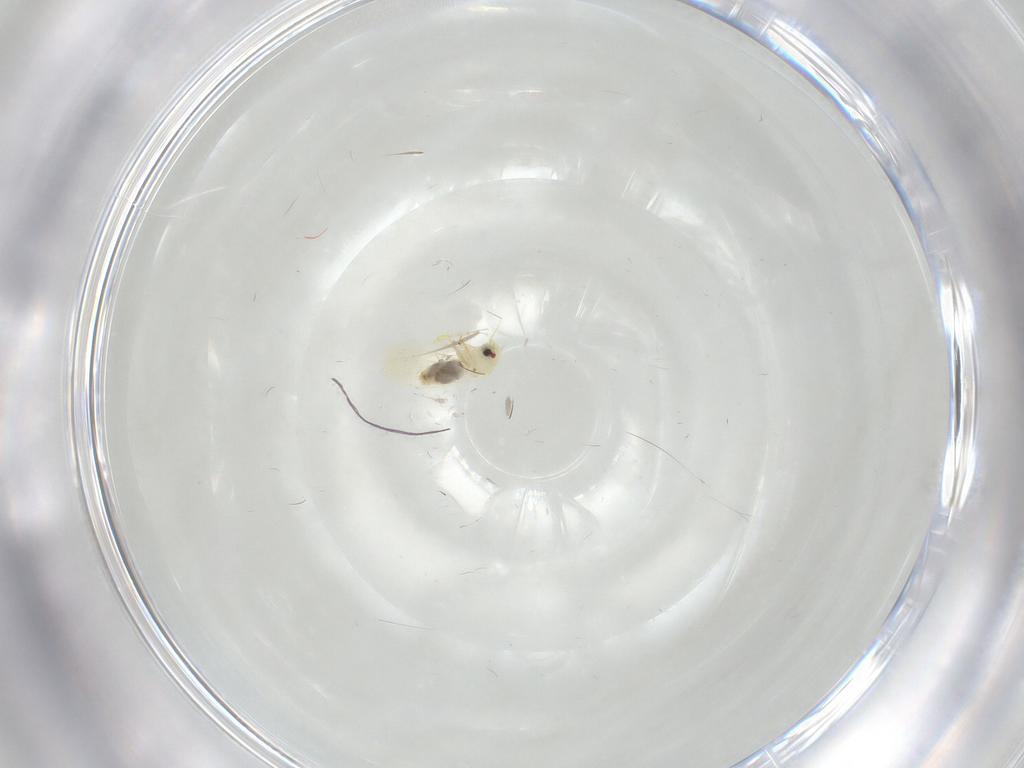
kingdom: Animalia
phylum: Arthropoda
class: Insecta
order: Hemiptera
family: Aleyrodidae
